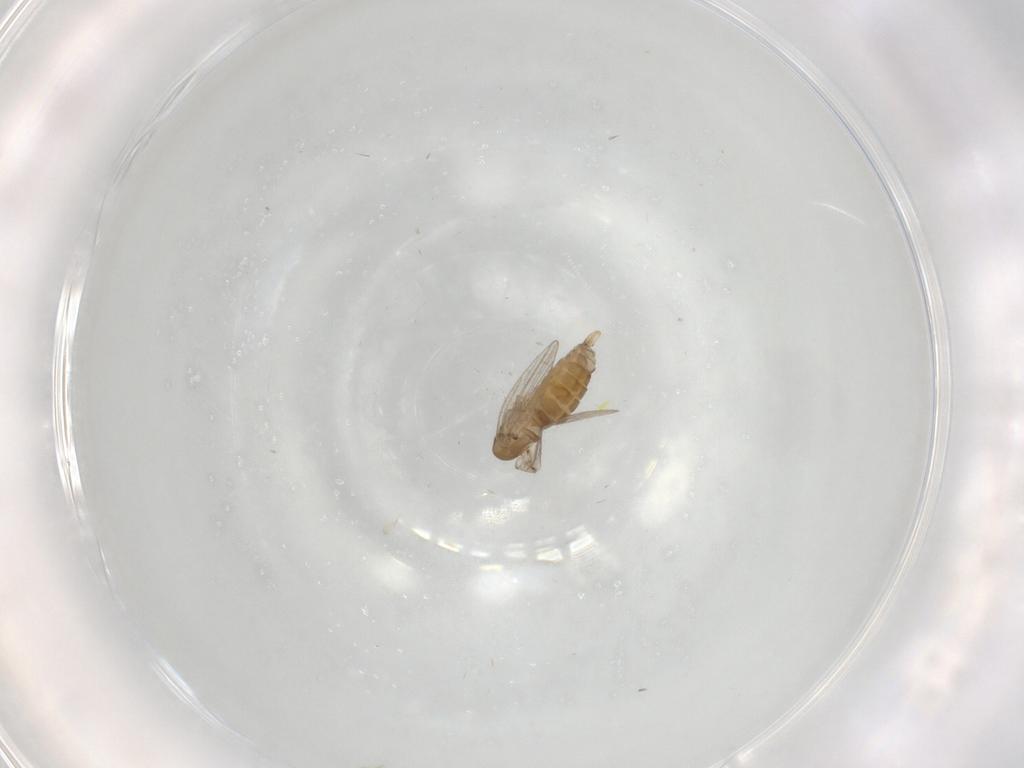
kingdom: Animalia
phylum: Arthropoda
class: Insecta
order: Diptera
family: Psychodidae
